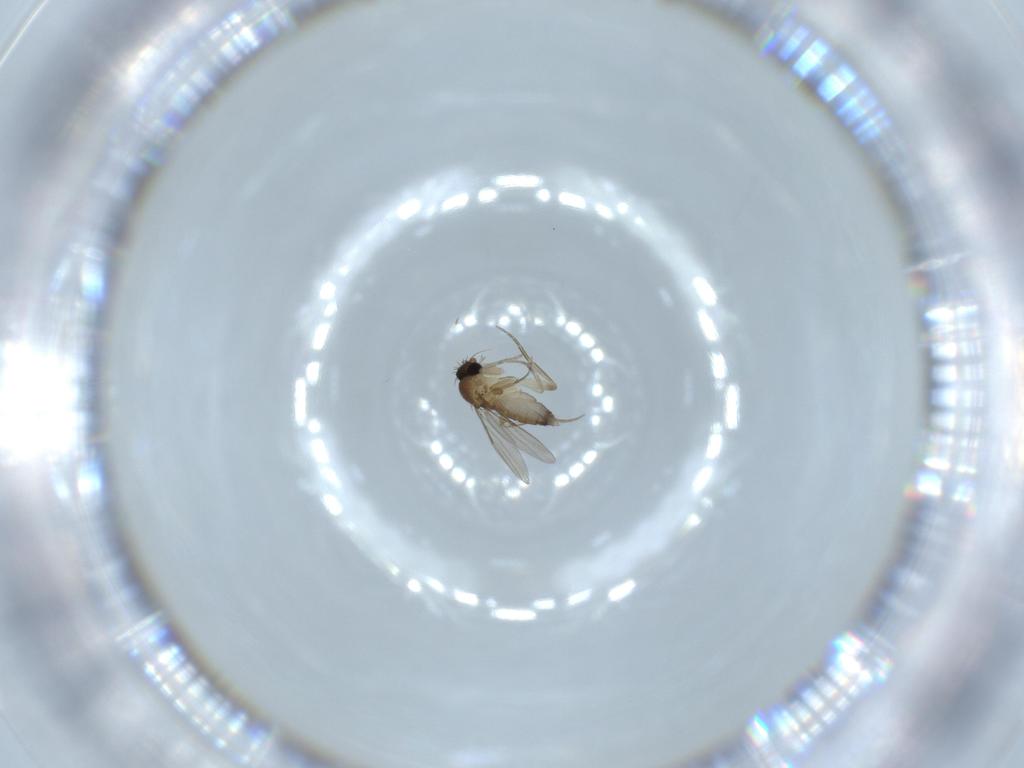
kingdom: Animalia
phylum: Arthropoda
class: Insecta
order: Diptera
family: Phoridae
